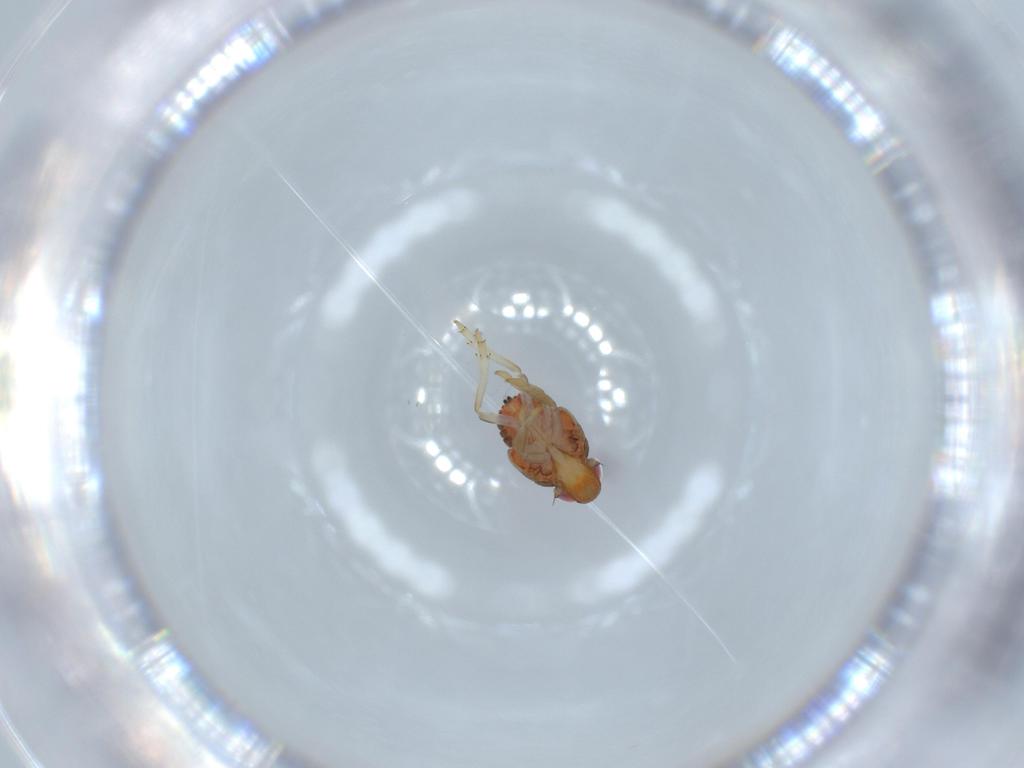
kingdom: Animalia
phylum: Arthropoda
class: Insecta
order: Hemiptera
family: Issidae
